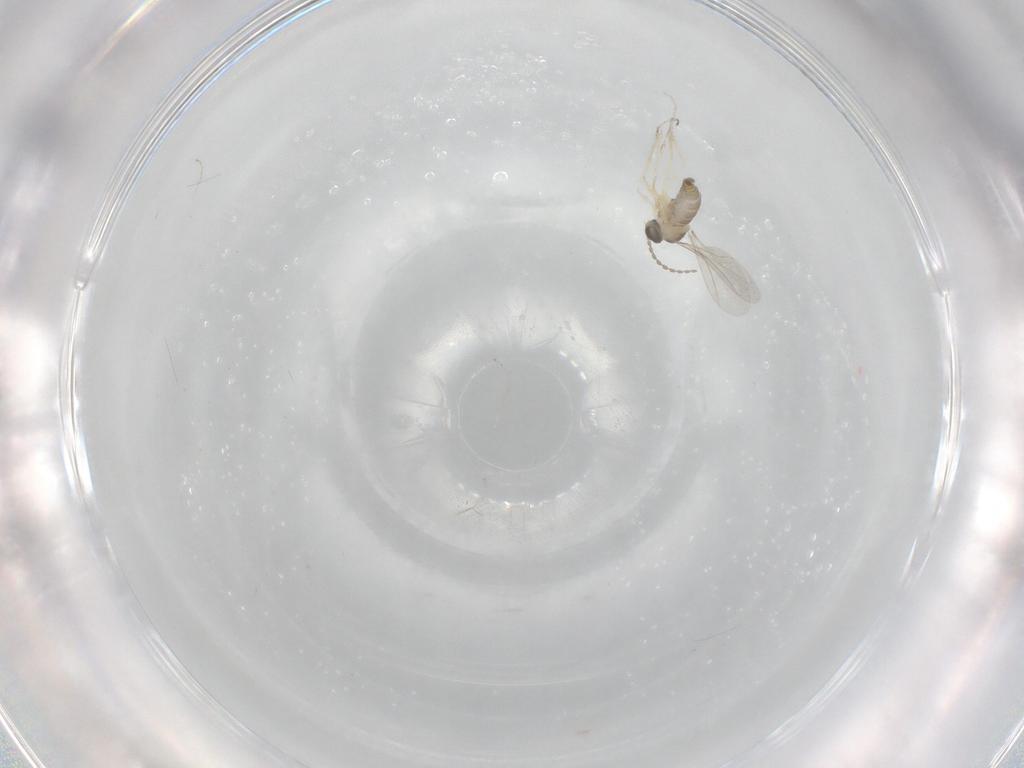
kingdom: Animalia
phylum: Arthropoda
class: Insecta
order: Diptera
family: Cecidomyiidae
